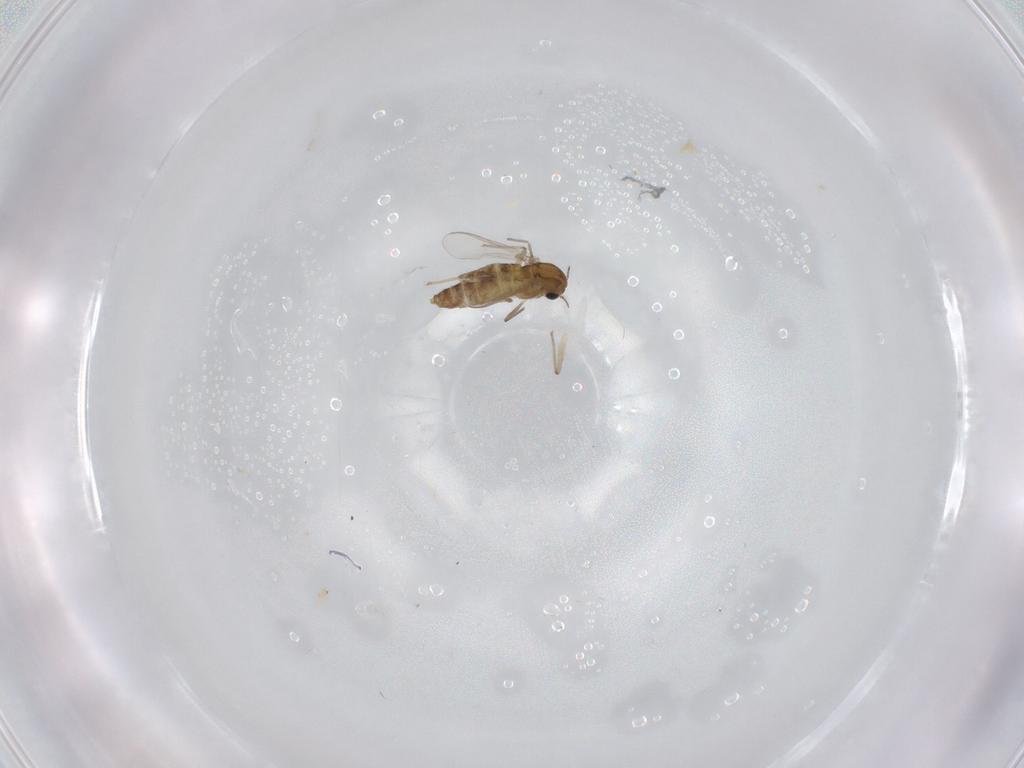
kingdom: Animalia
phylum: Arthropoda
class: Insecta
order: Diptera
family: Chironomidae
